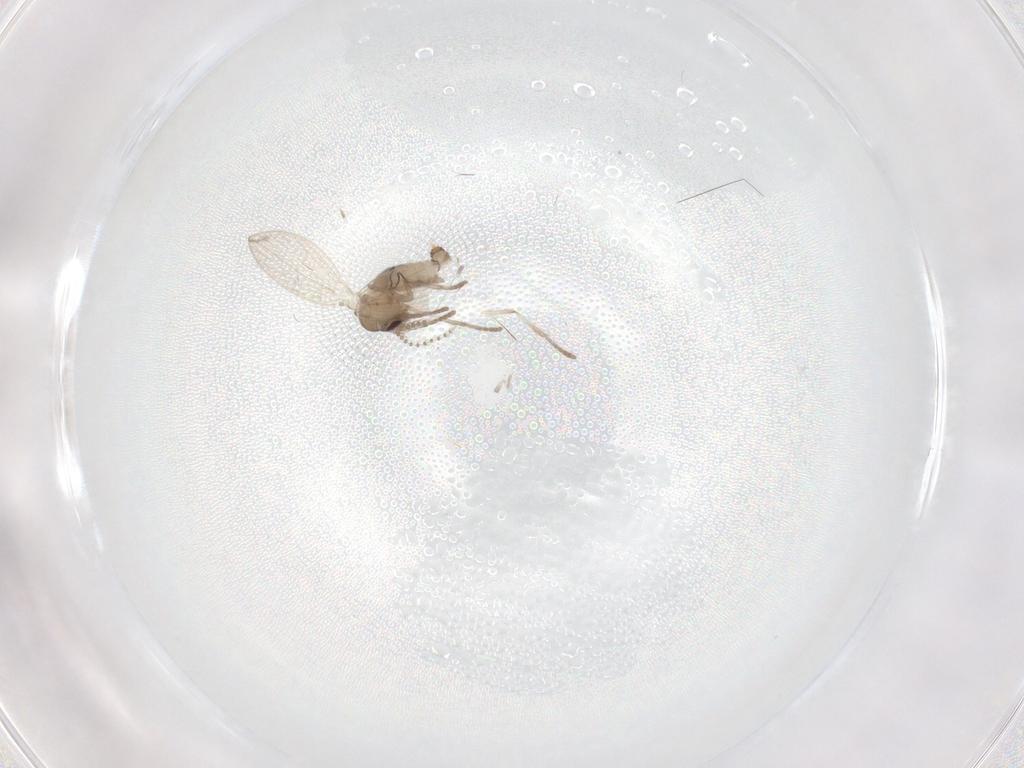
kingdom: Animalia
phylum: Arthropoda
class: Insecta
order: Diptera
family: Psychodidae
